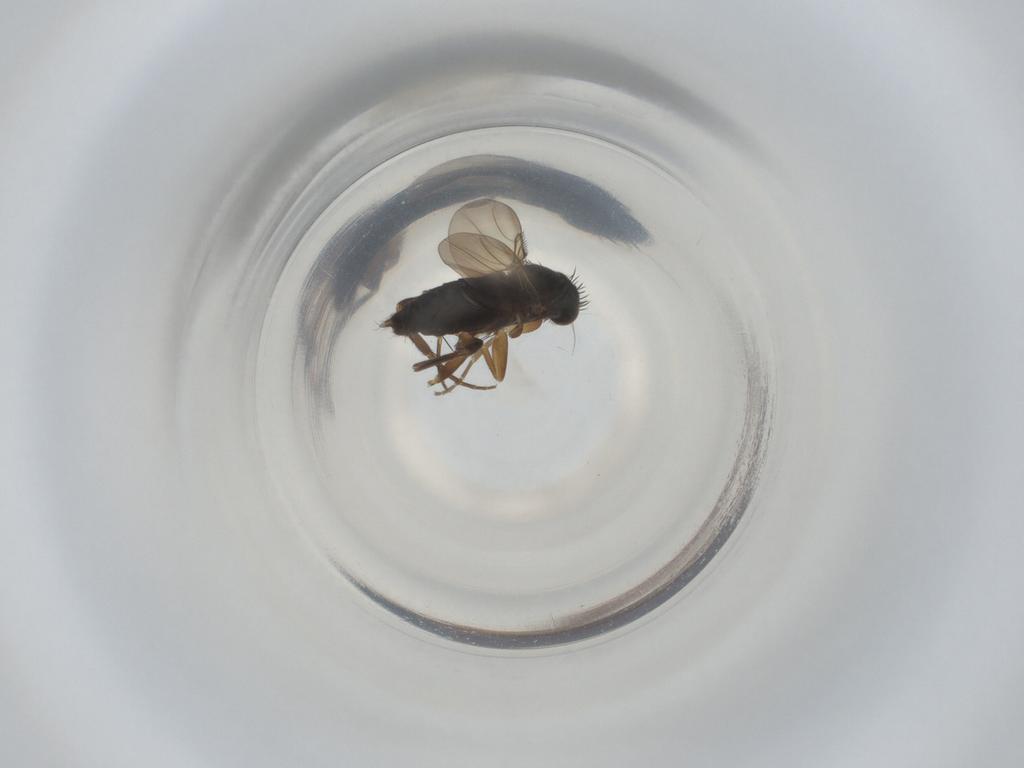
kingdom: Animalia
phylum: Arthropoda
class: Insecta
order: Diptera
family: Phoridae
